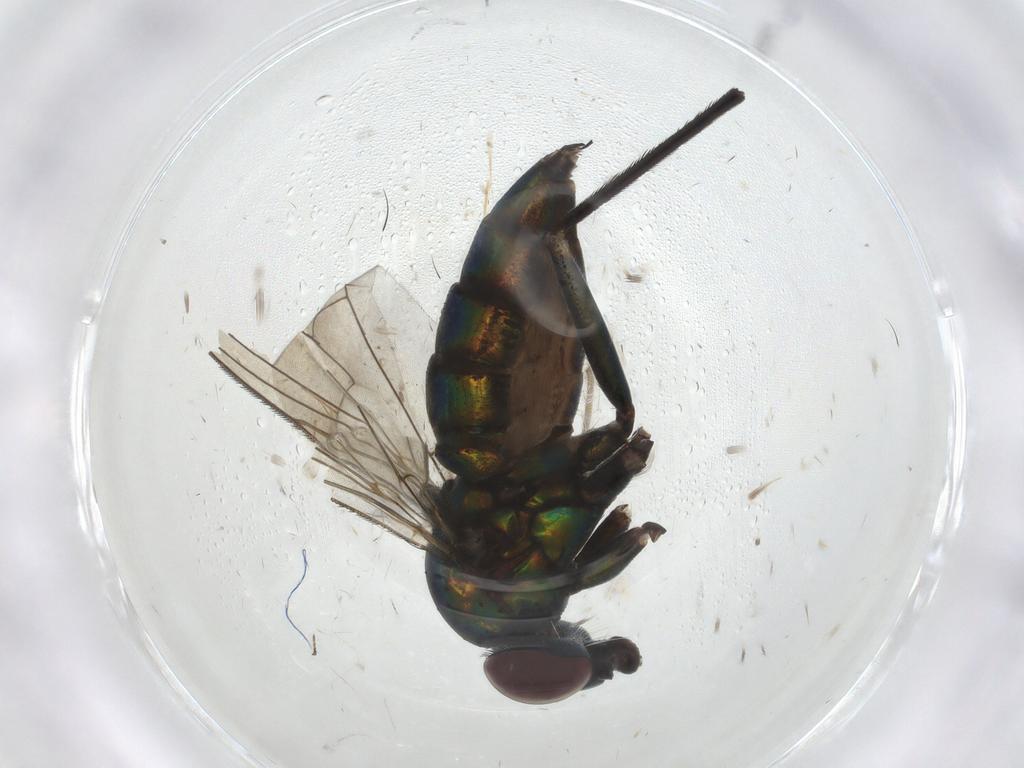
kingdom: Animalia
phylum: Arthropoda
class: Insecta
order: Diptera
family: Dolichopodidae
